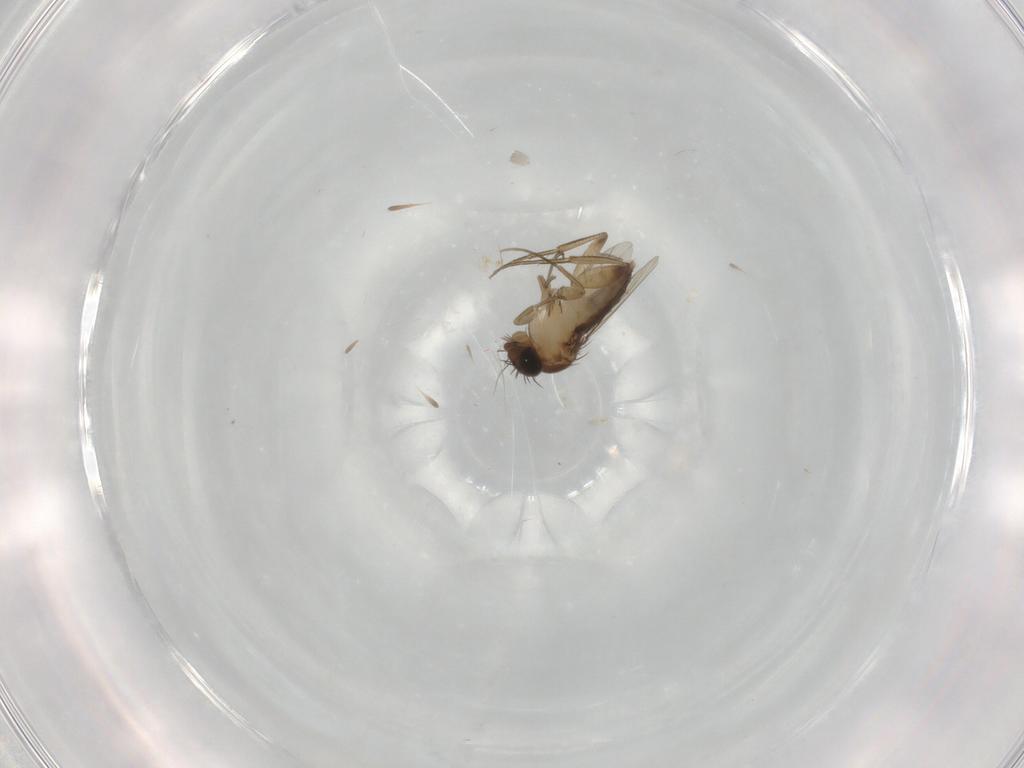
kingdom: Animalia
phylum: Arthropoda
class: Insecta
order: Diptera
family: Phoridae
